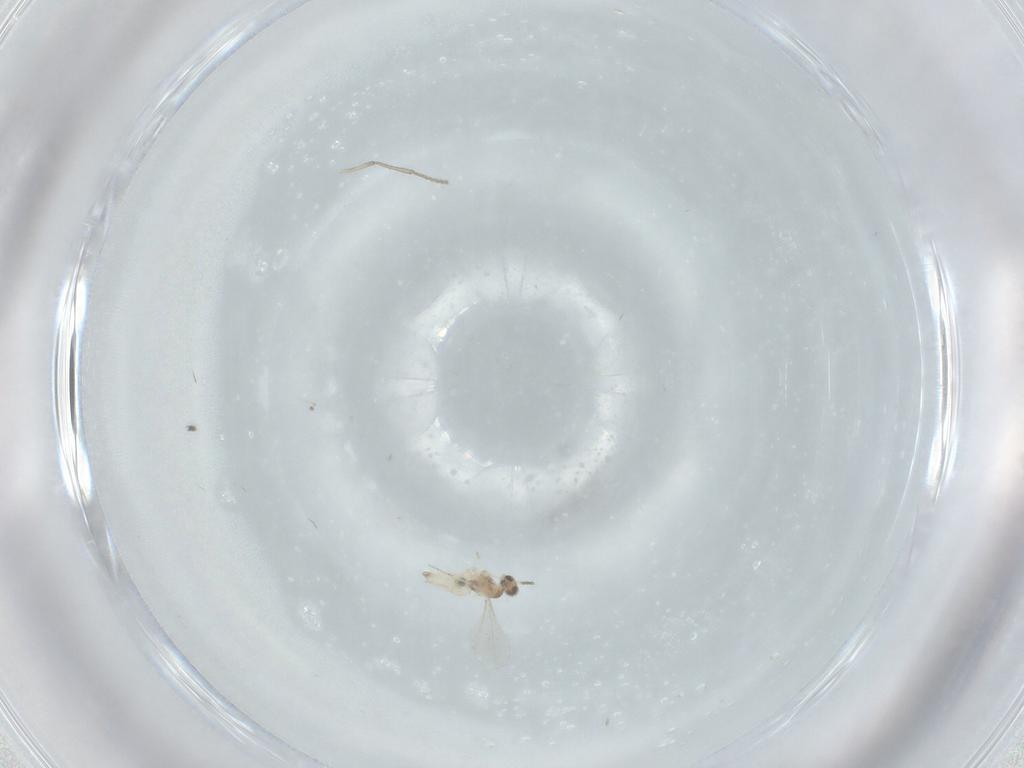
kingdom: Animalia
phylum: Arthropoda
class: Insecta
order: Diptera
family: Cecidomyiidae
